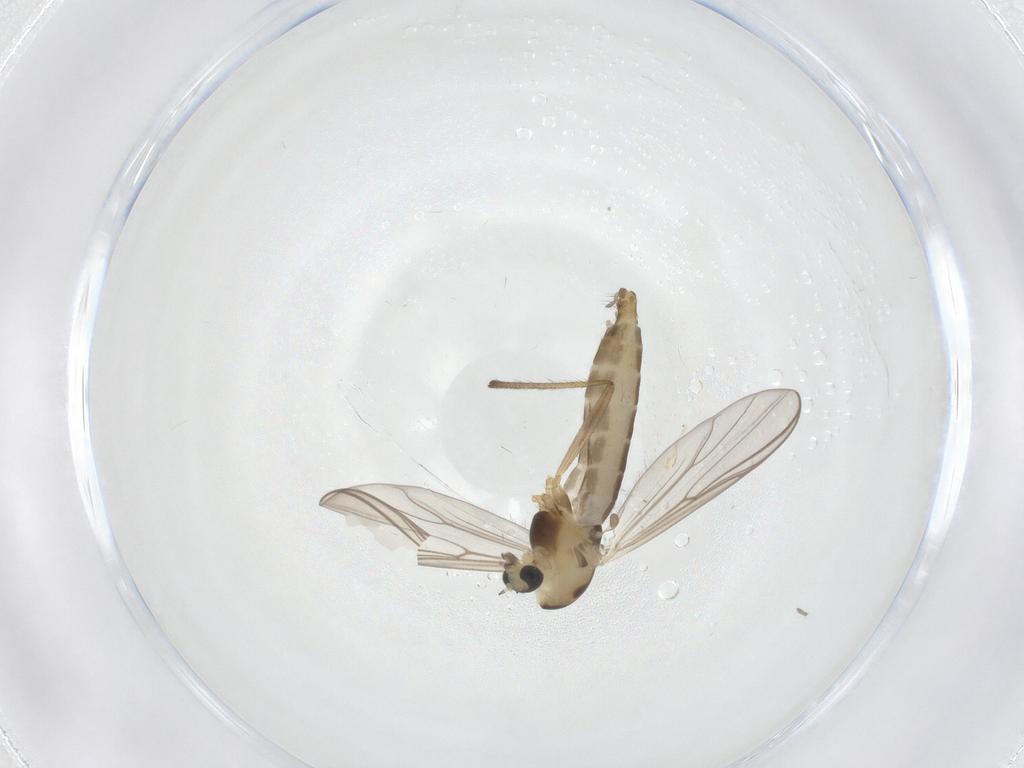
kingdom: Animalia
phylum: Arthropoda
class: Insecta
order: Diptera
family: Chironomidae
